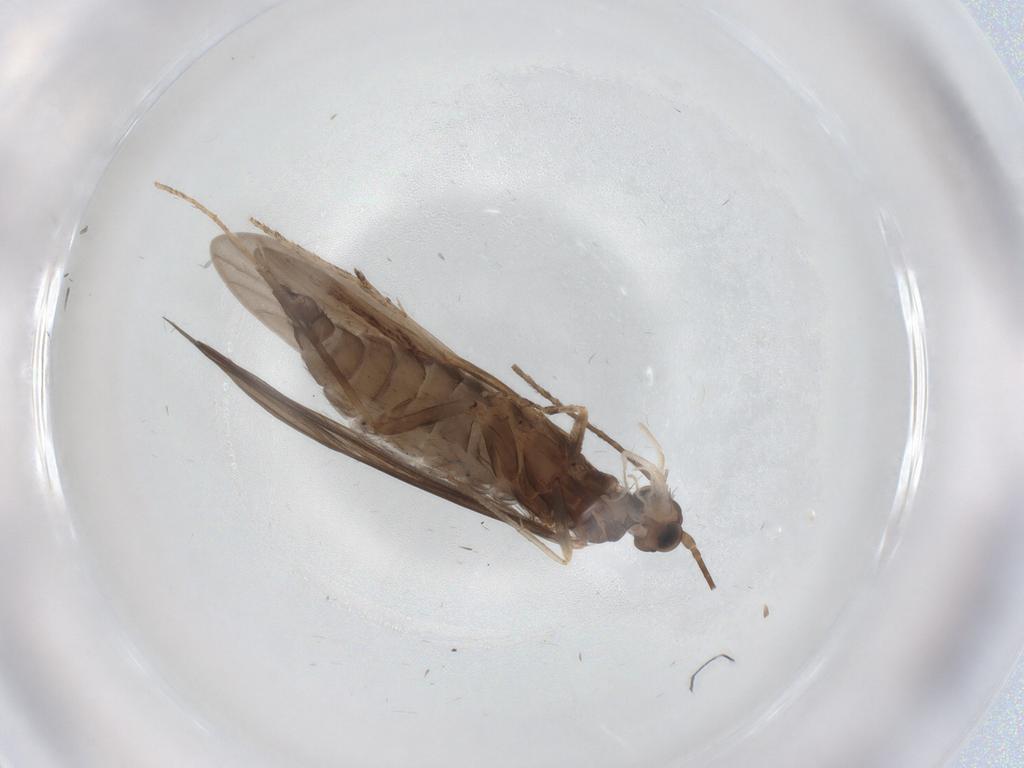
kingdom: Animalia
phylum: Arthropoda
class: Insecta
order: Trichoptera
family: Xiphocentronidae
